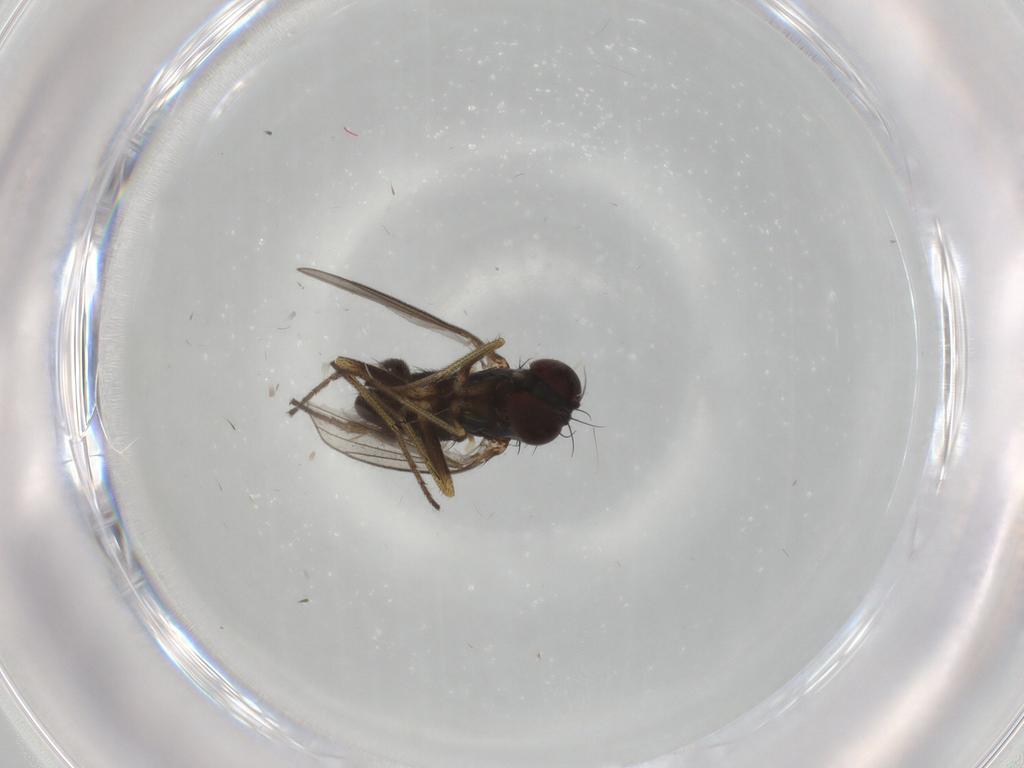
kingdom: Animalia
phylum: Arthropoda
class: Insecta
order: Diptera
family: Dolichopodidae
